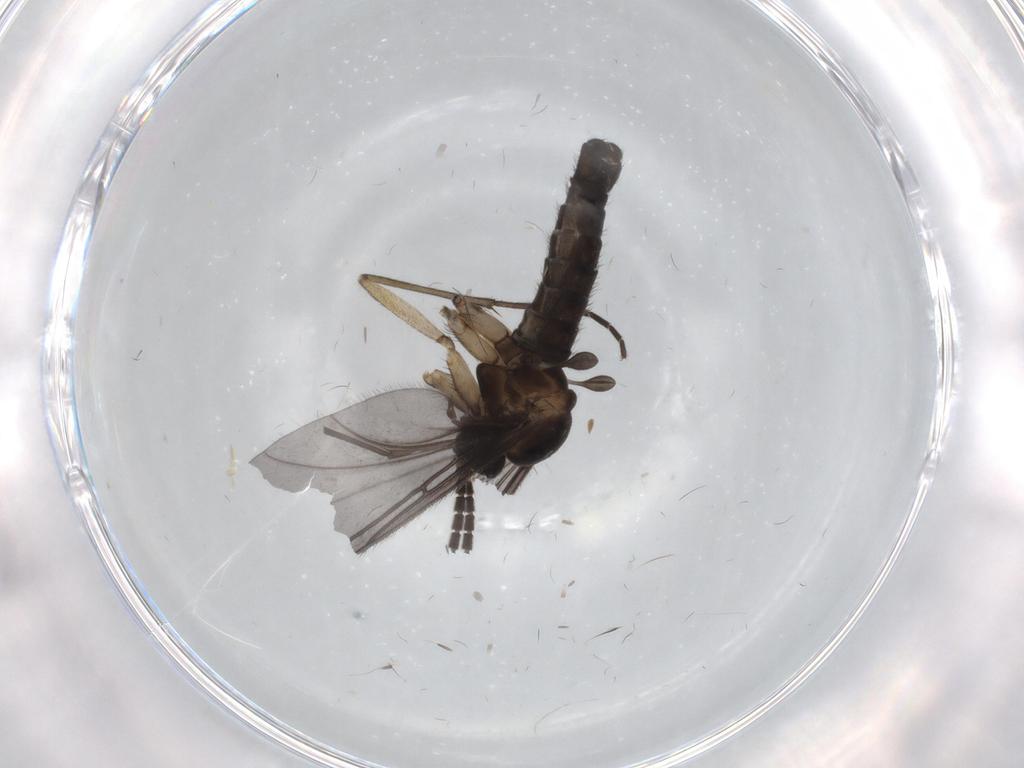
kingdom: Animalia
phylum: Arthropoda
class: Insecta
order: Diptera
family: Sciaridae
